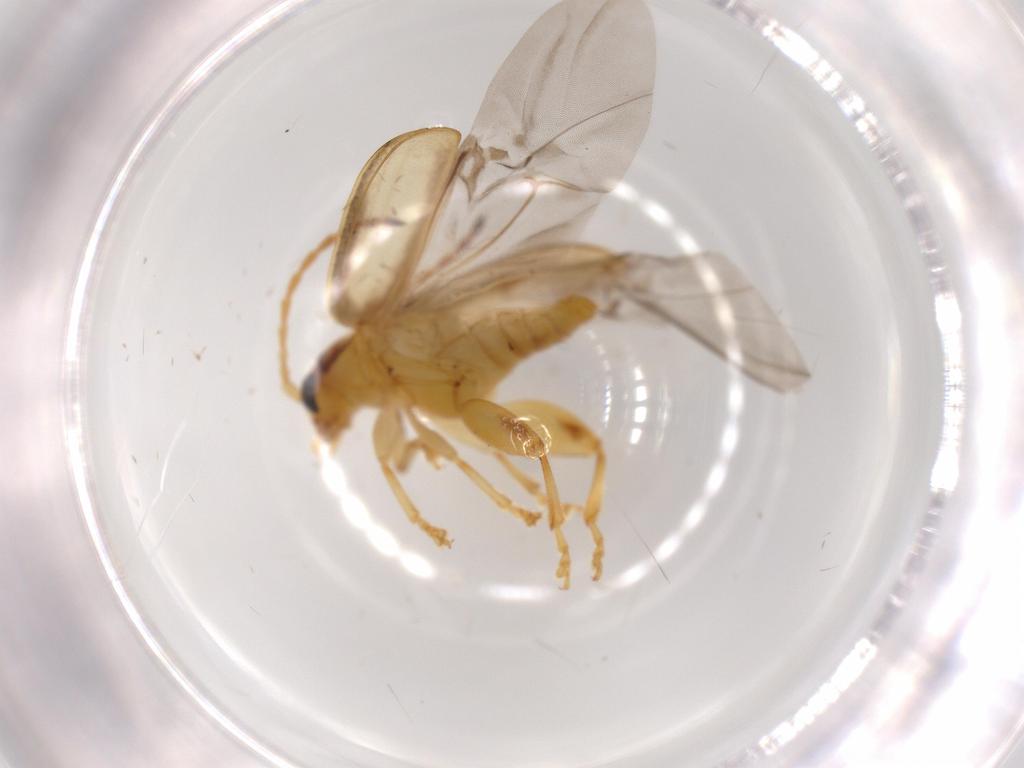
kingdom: Animalia
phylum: Arthropoda
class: Insecta
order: Coleoptera
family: Chrysomelidae
